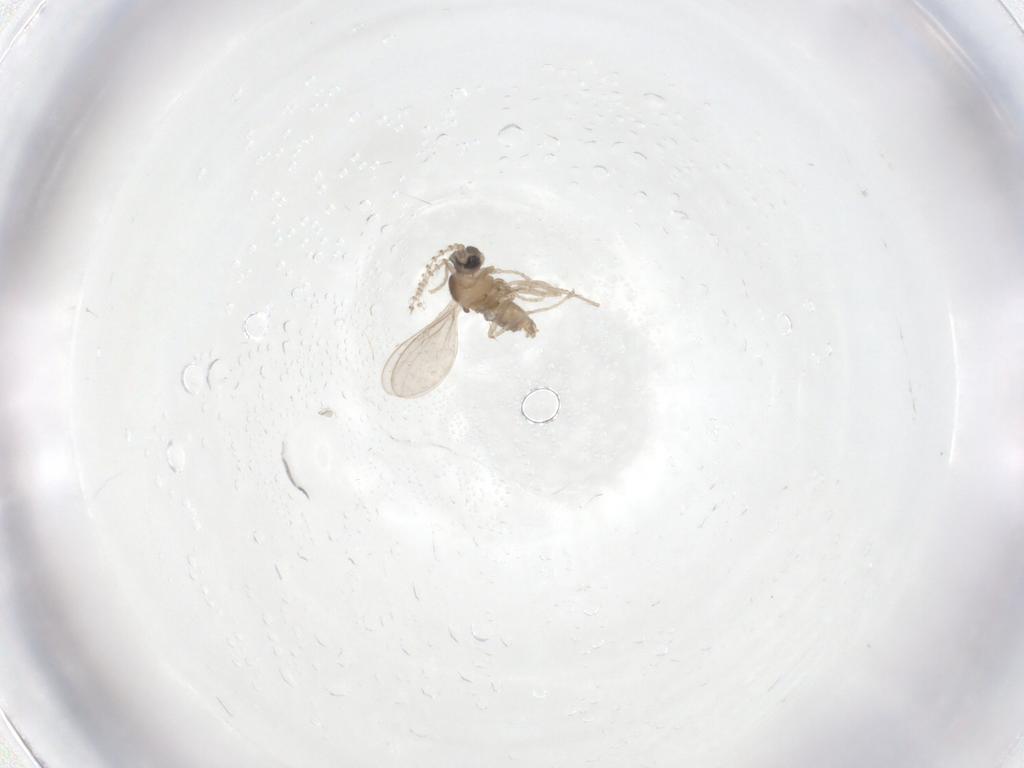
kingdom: Animalia
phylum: Arthropoda
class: Insecta
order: Diptera
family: Cecidomyiidae
